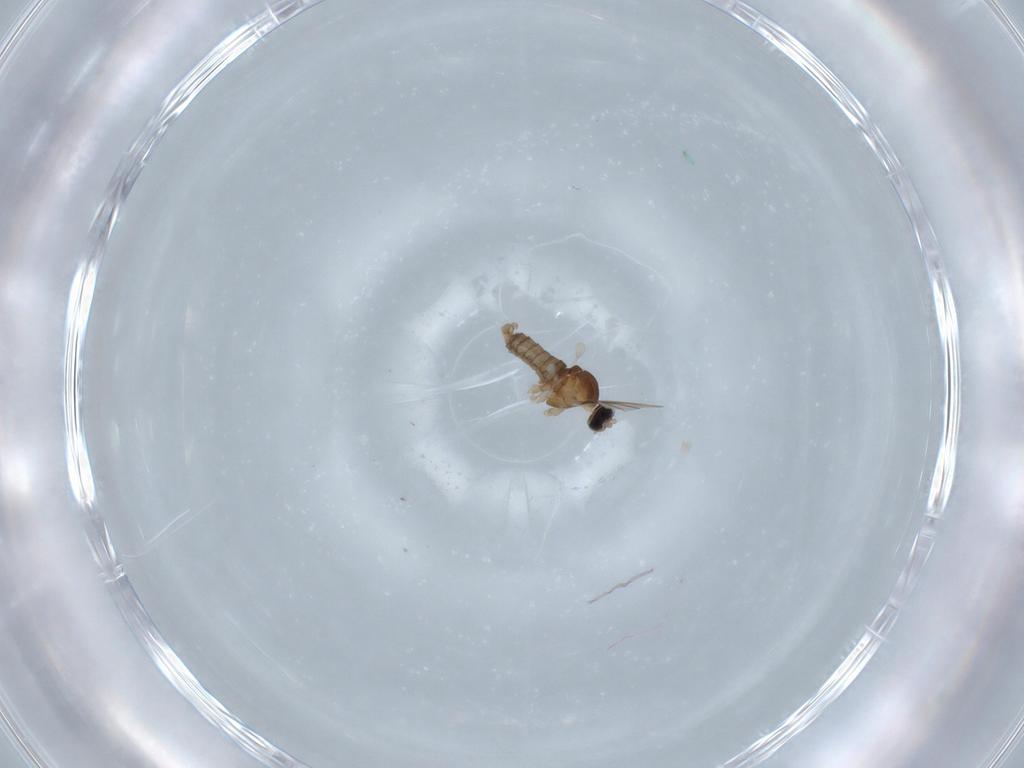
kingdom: Animalia
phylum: Arthropoda
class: Insecta
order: Diptera
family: Cecidomyiidae
